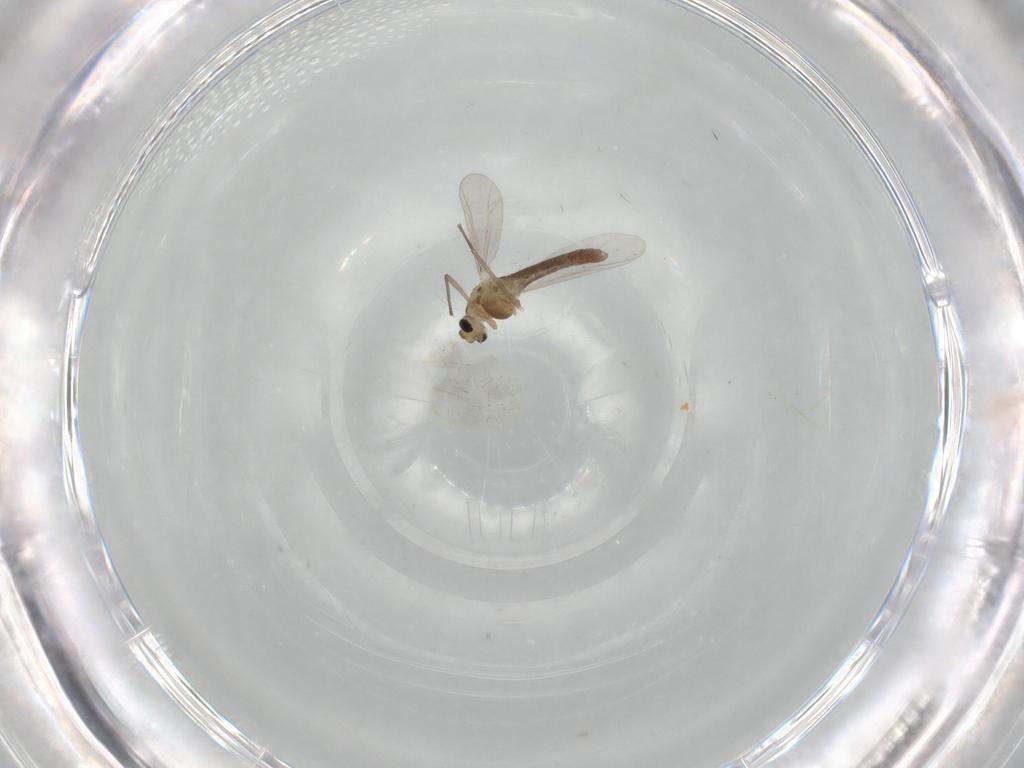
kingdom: Animalia
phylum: Arthropoda
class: Insecta
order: Diptera
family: Chironomidae
